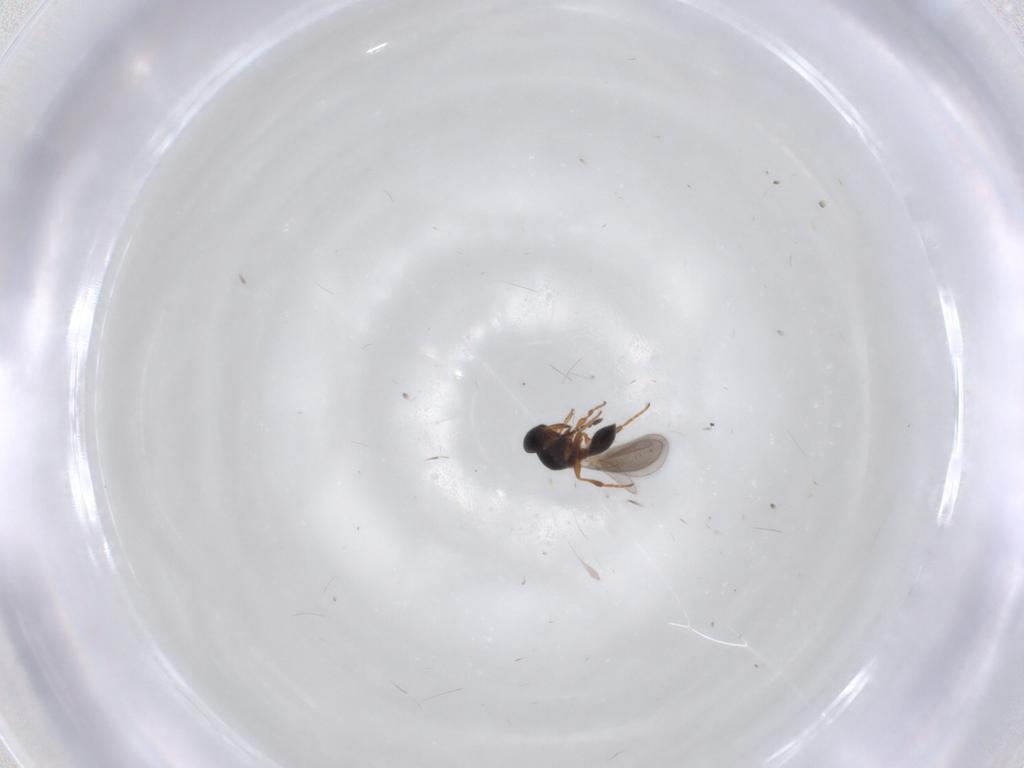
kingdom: Animalia
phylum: Arthropoda
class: Insecta
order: Hymenoptera
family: Platygastridae
